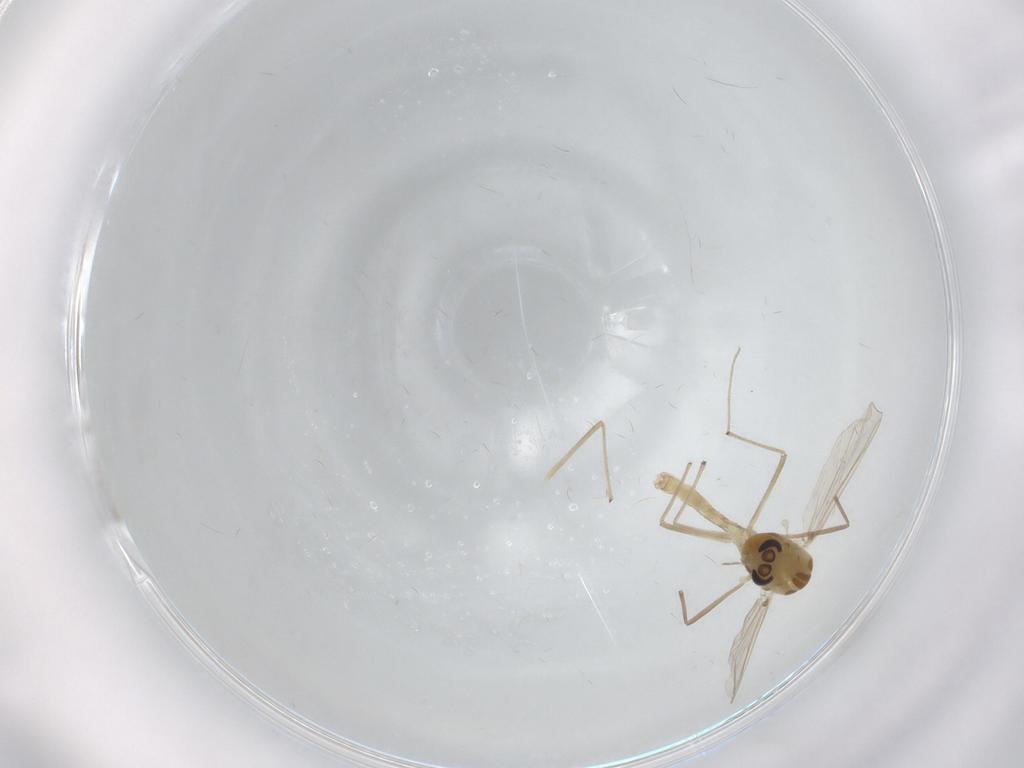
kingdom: Animalia
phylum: Arthropoda
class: Insecta
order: Diptera
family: Chironomidae
